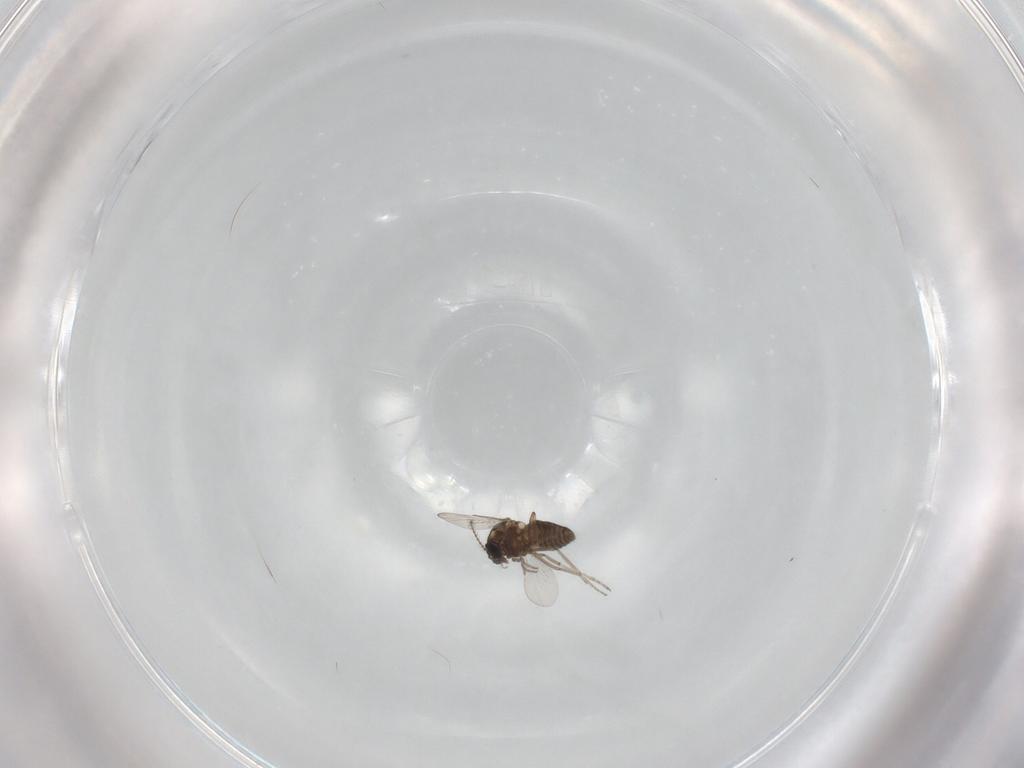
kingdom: Animalia
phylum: Arthropoda
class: Insecta
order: Diptera
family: Ceratopogonidae
